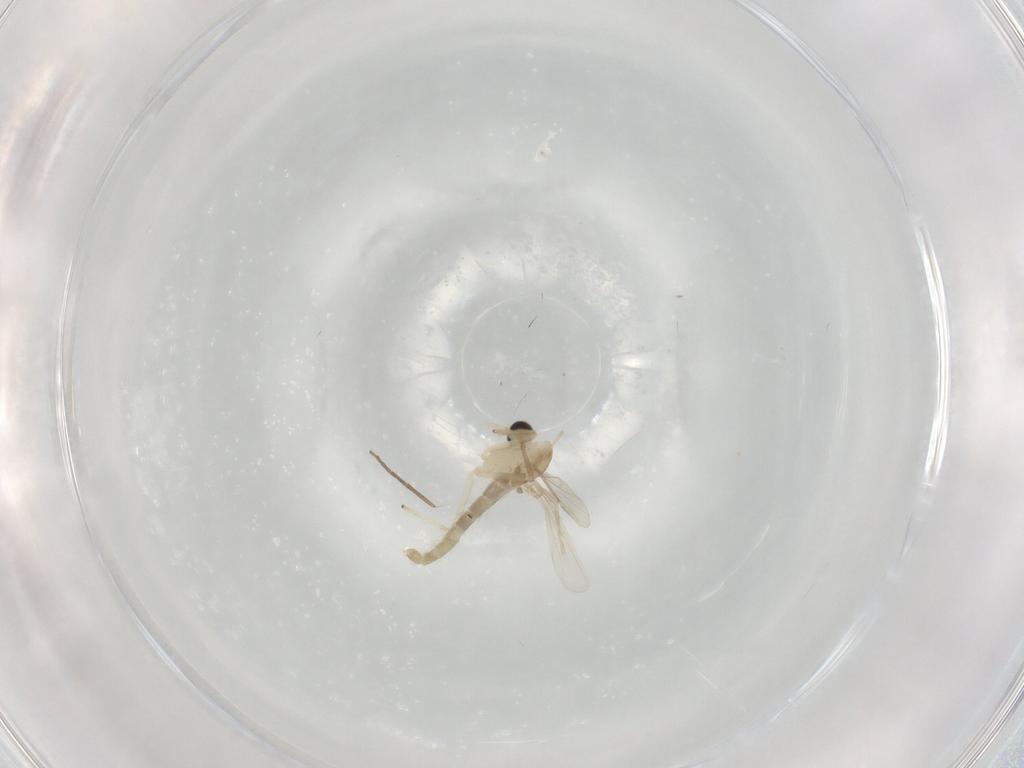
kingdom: Animalia
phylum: Arthropoda
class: Insecta
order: Diptera
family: Chironomidae
